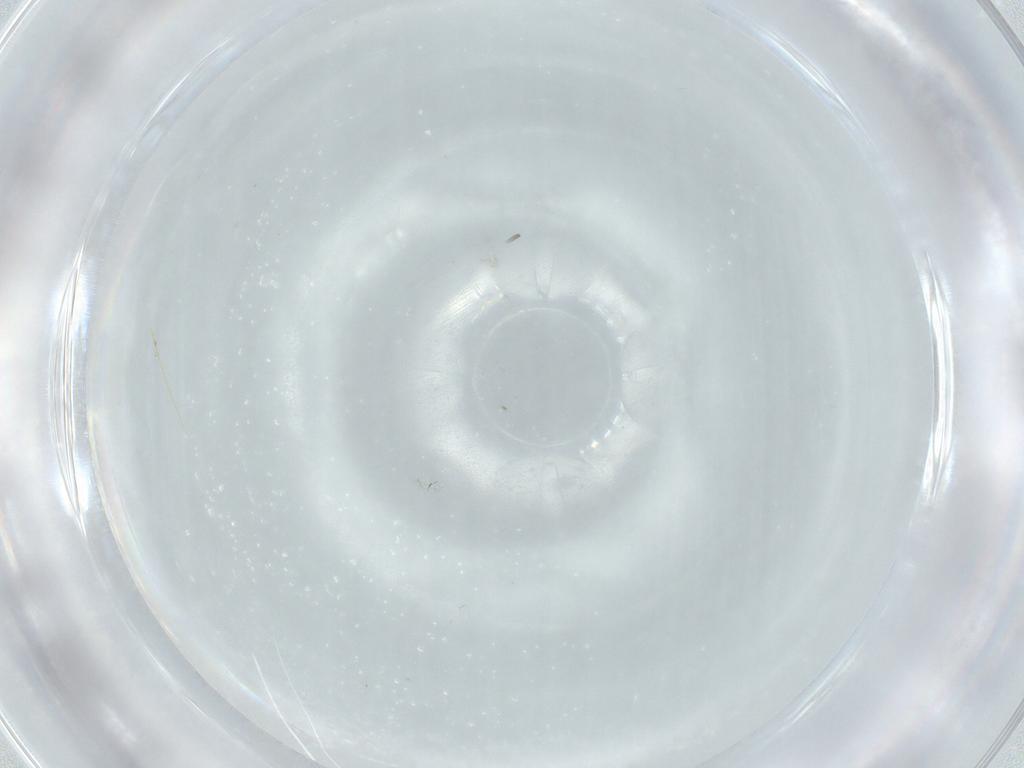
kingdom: Animalia
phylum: Arthropoda
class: Insecta
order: Diptera
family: Cecidomyiidae
